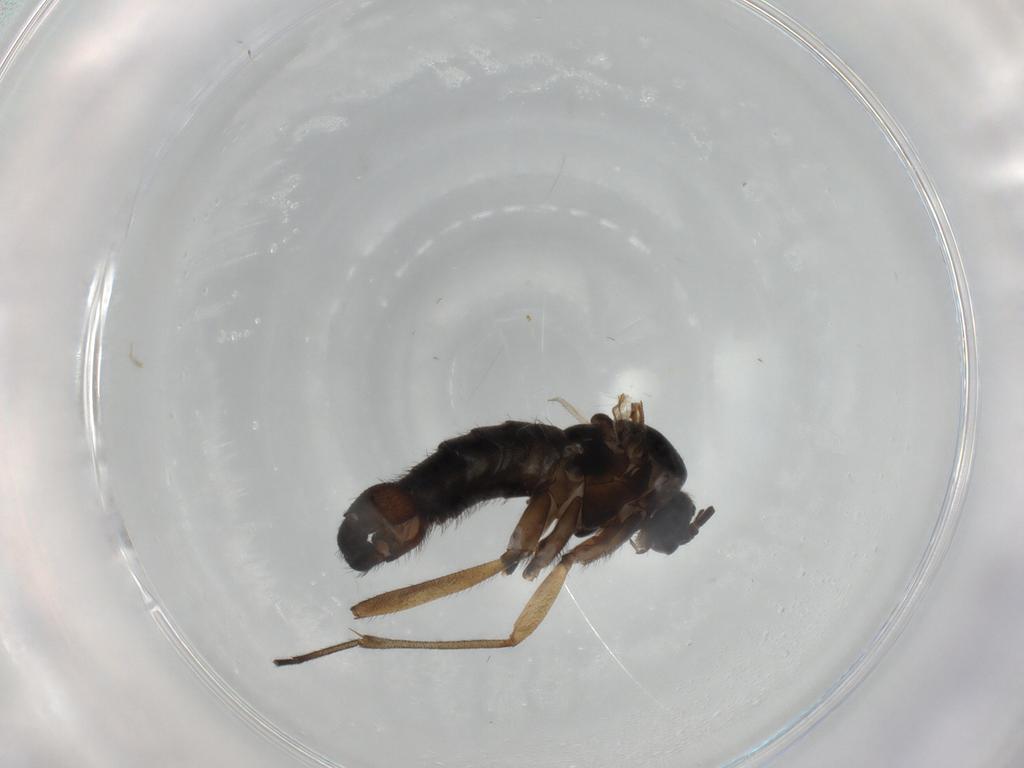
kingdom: Animalia
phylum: Arthropoda
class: Insecta
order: Diptera
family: Sciaridae
